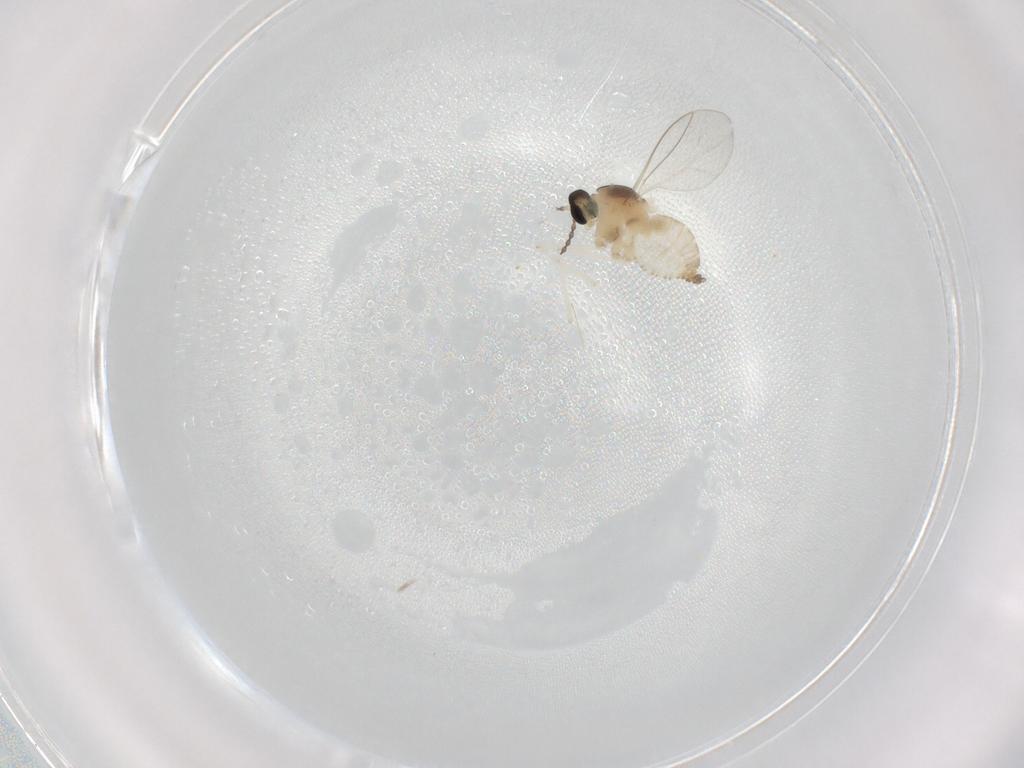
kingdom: Animalia
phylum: Arthropoda
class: Insecta
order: Diptera
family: Cecidomyiidae
